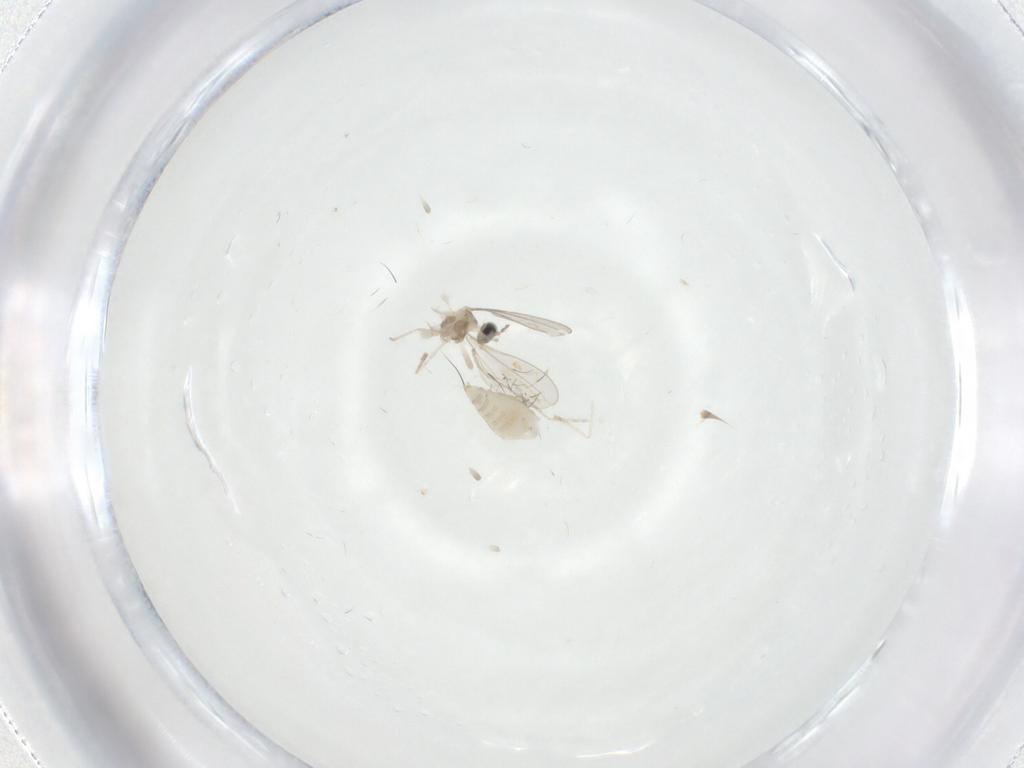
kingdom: Animalia
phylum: Arthropoda
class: Insecta
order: Diptera
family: Cecidomyiidae
